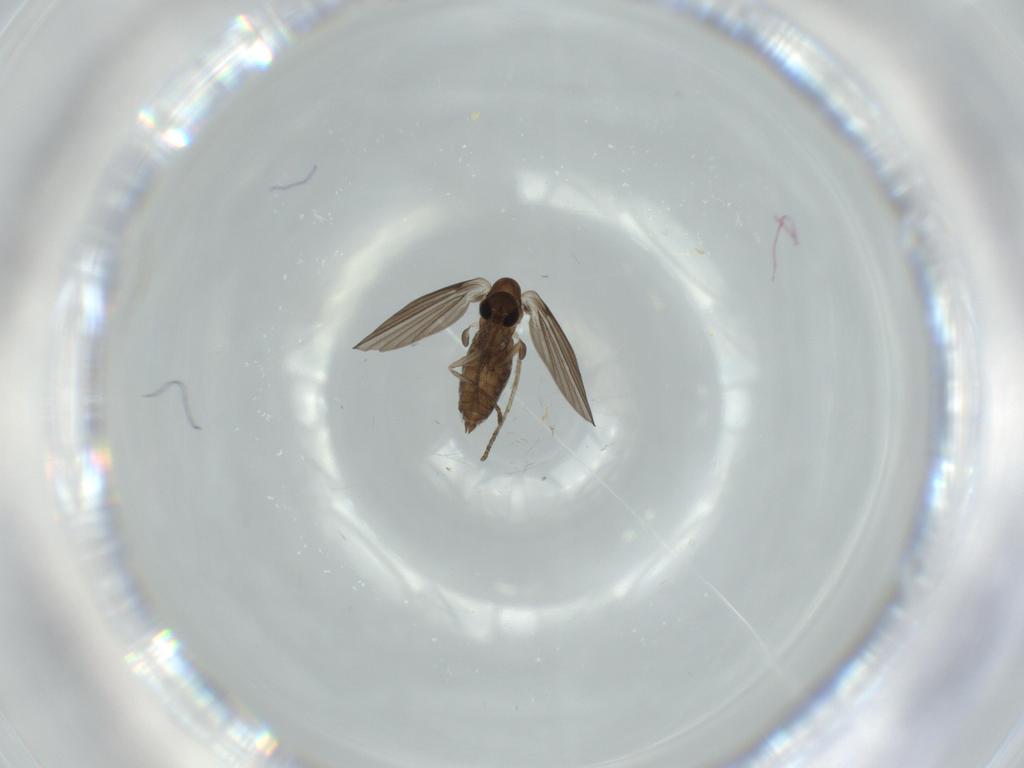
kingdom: Animalia
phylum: Arthropoda
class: Insecta
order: Diptera
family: Psychodidae
